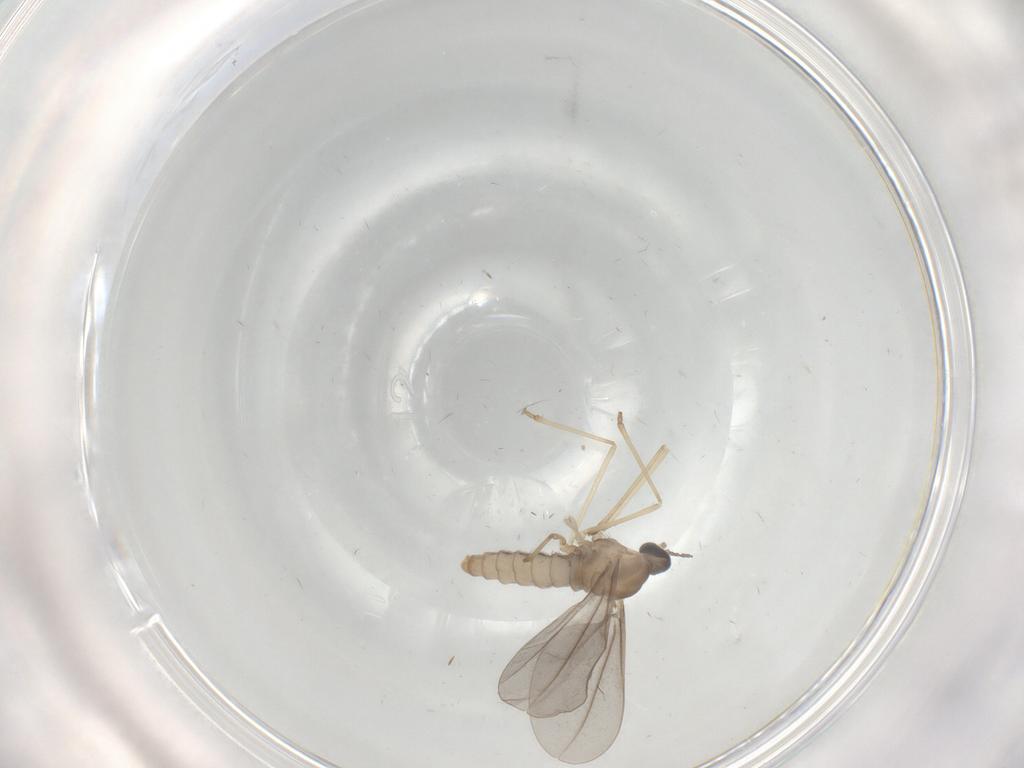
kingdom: Animalia
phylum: Arthropoda
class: Insecta
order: Diptera
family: Cecidomyiidae
